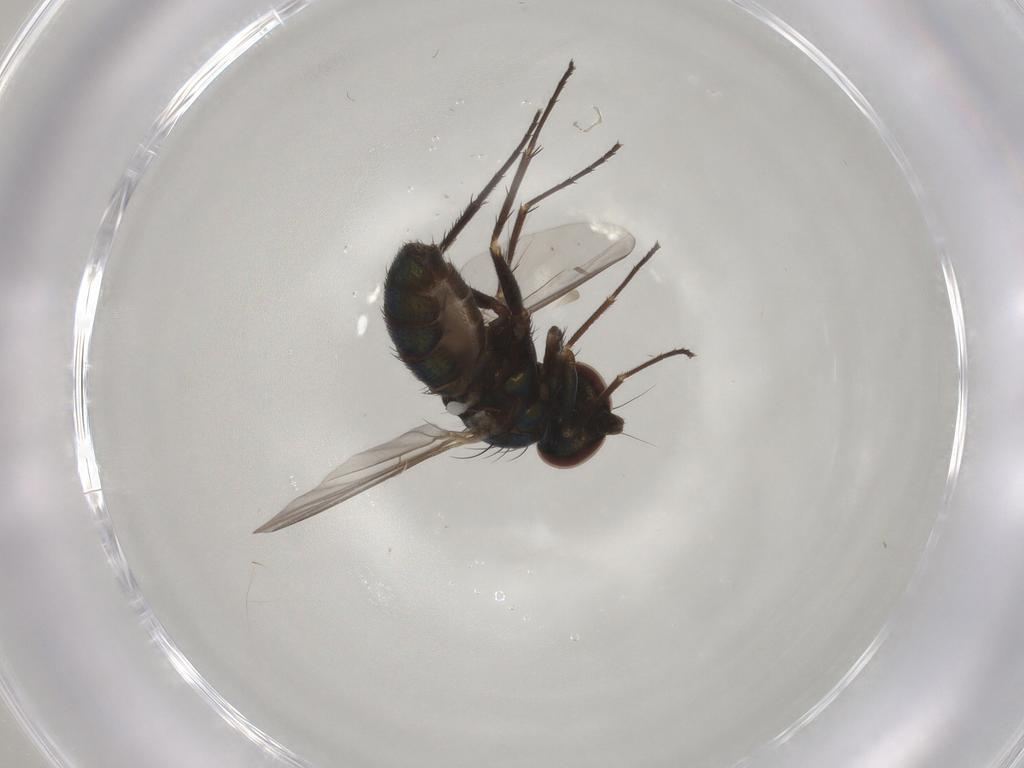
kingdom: Animalia
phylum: Arthropoda
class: Insecta
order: Diptera
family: Dolichopodidae
